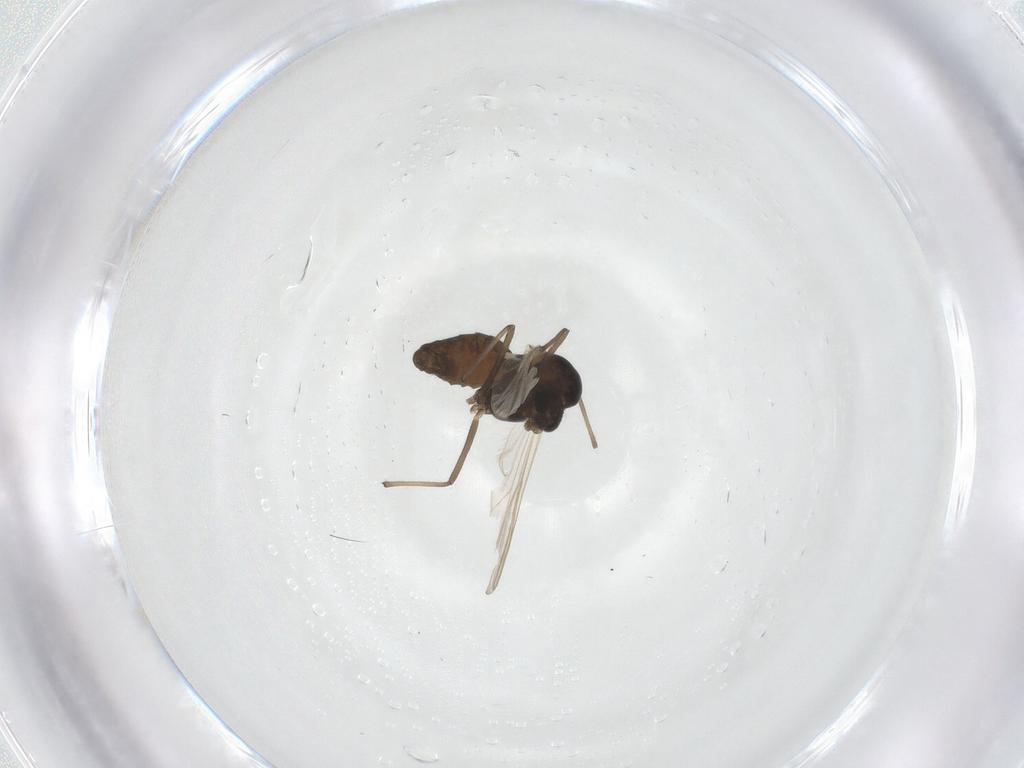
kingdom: Animalia
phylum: Arthropoda
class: Insecta
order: Diptera
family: Chironomidae
